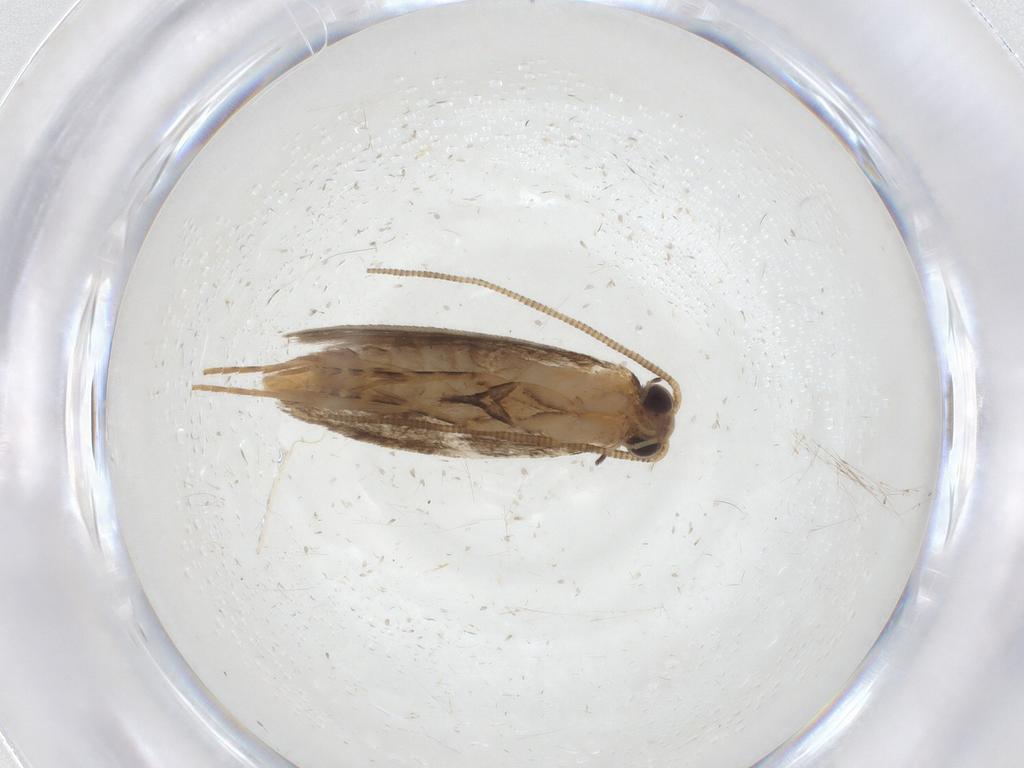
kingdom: Animalia
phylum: Arthropoda
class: Insecta
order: Lepidoptera
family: Tineidae
